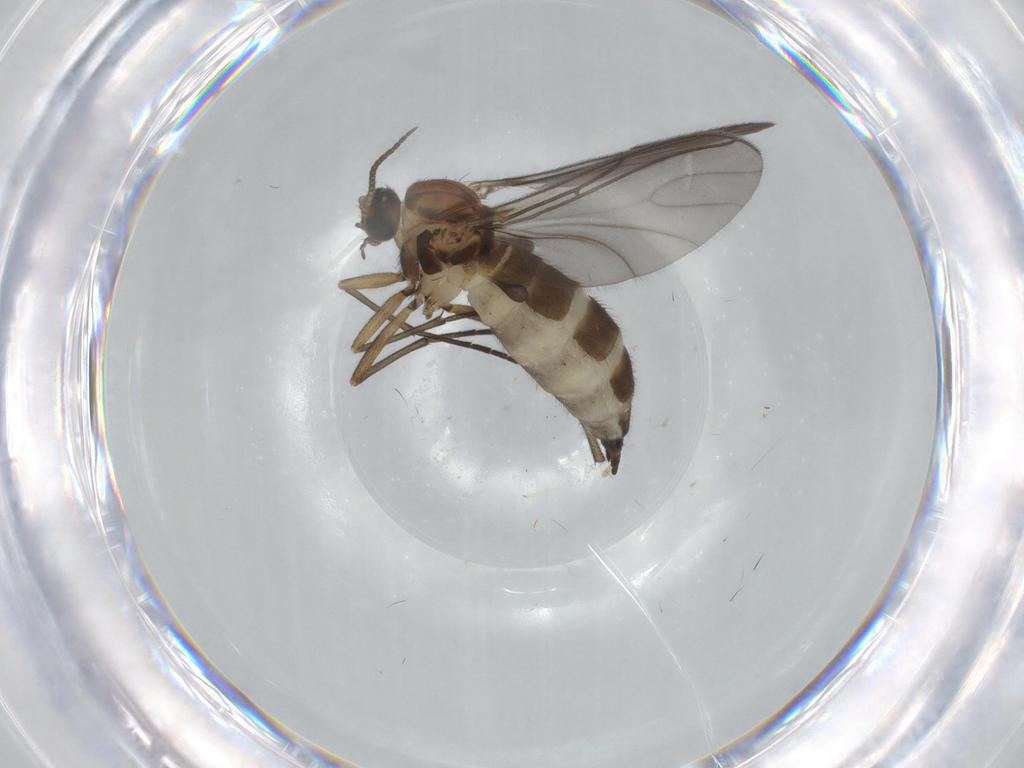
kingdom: Animalia
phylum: Arthropoda
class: Insecta
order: Diptera
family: Sciaridae
